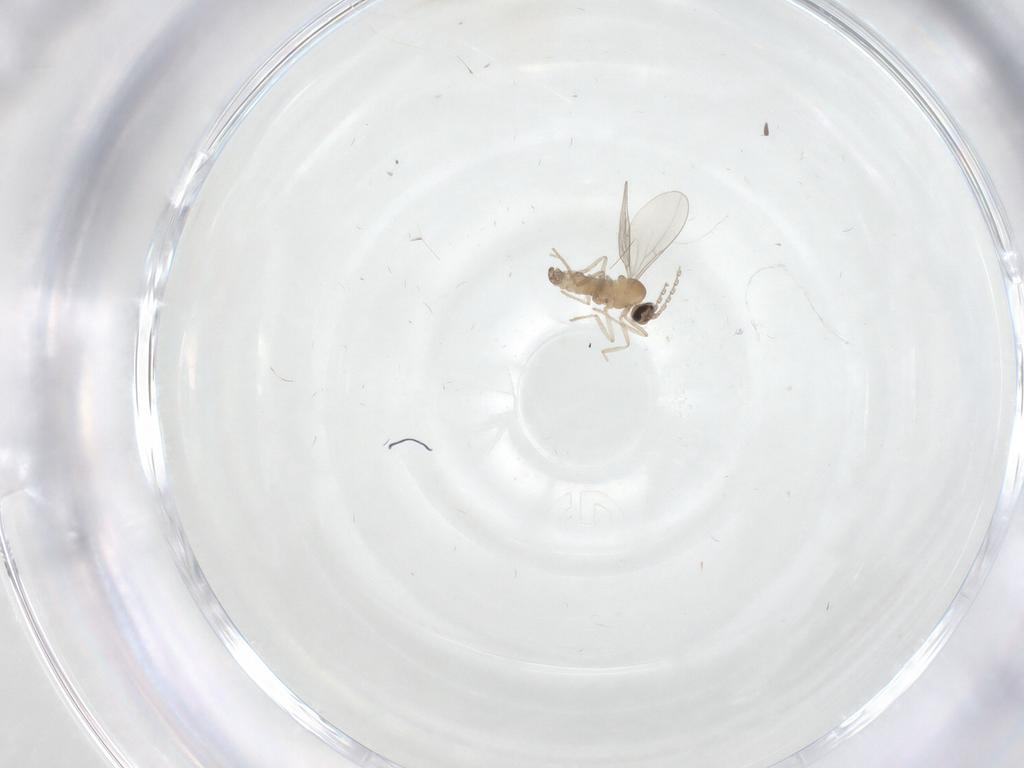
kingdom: Animalia
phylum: Arthropoda
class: Insecta
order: Diptera
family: Cecidomyiidae
